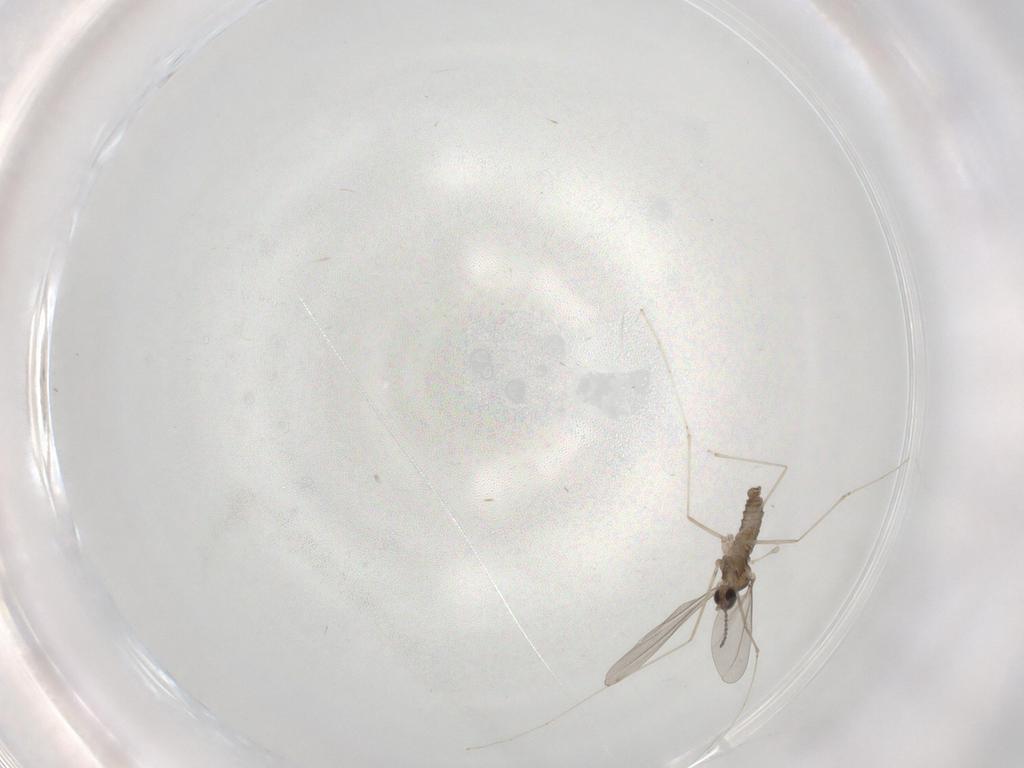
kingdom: Animalia
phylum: Arthropoda
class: Insecta
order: Diptera
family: Cecidomyiidae
